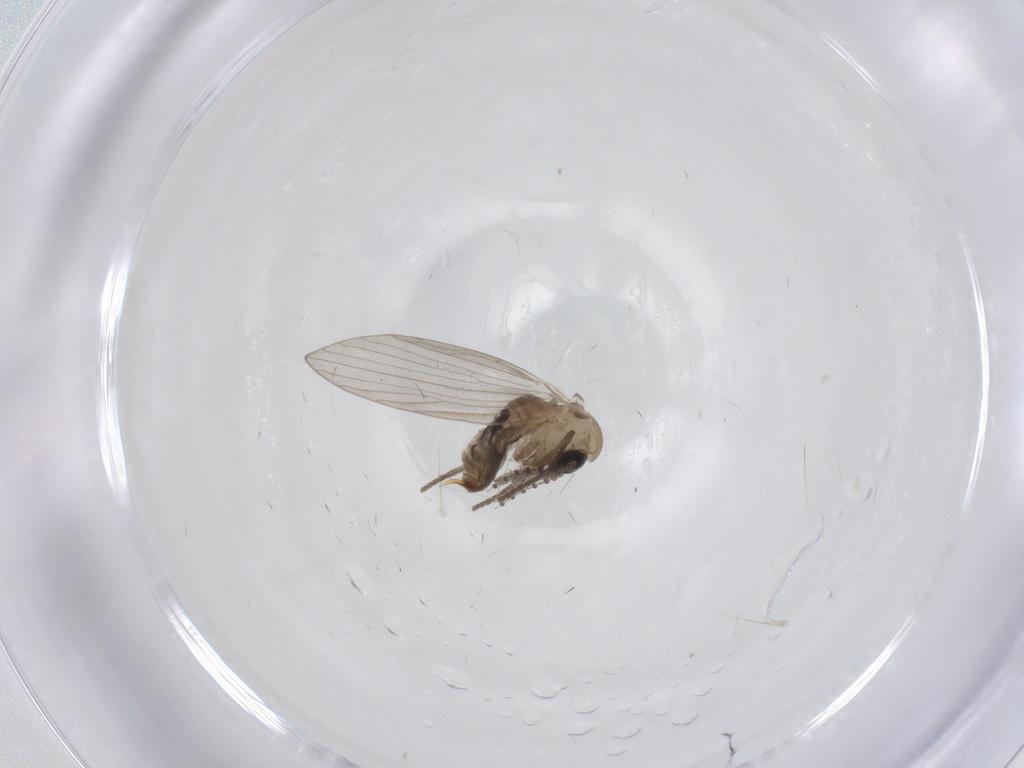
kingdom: Animalia
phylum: Arthropoda
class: Insecta
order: Diptera
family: Psychodidae
